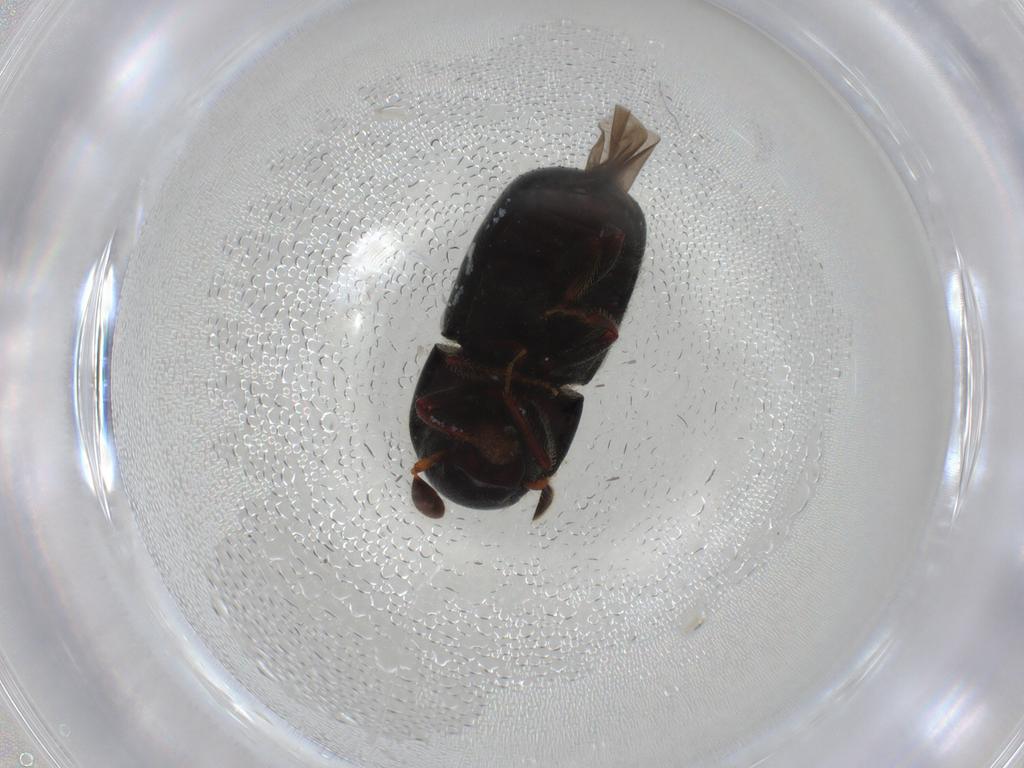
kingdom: Animalia
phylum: Arthropoda
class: Insecta
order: Coleoptera
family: Curculionidae
